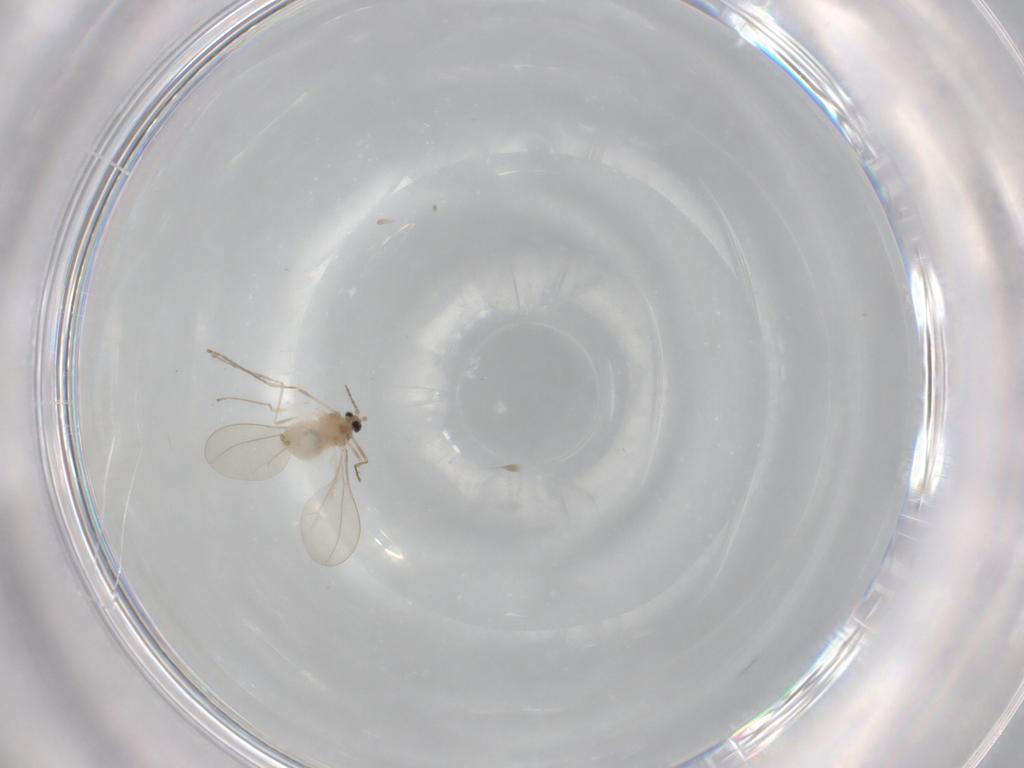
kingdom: Animalia
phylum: Arthropoda
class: Insecta
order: Diptera
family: Cecidomyiidae
